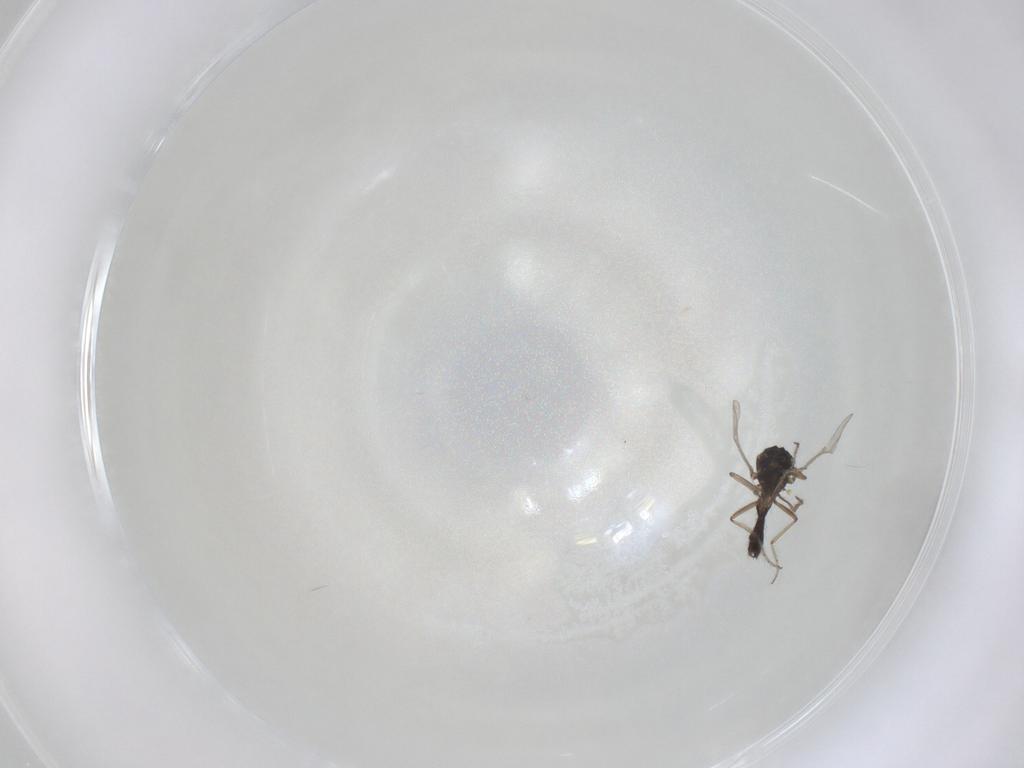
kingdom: Animalia
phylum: Arthropoda
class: Insecta
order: Diptera
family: Ceratopogonidae
